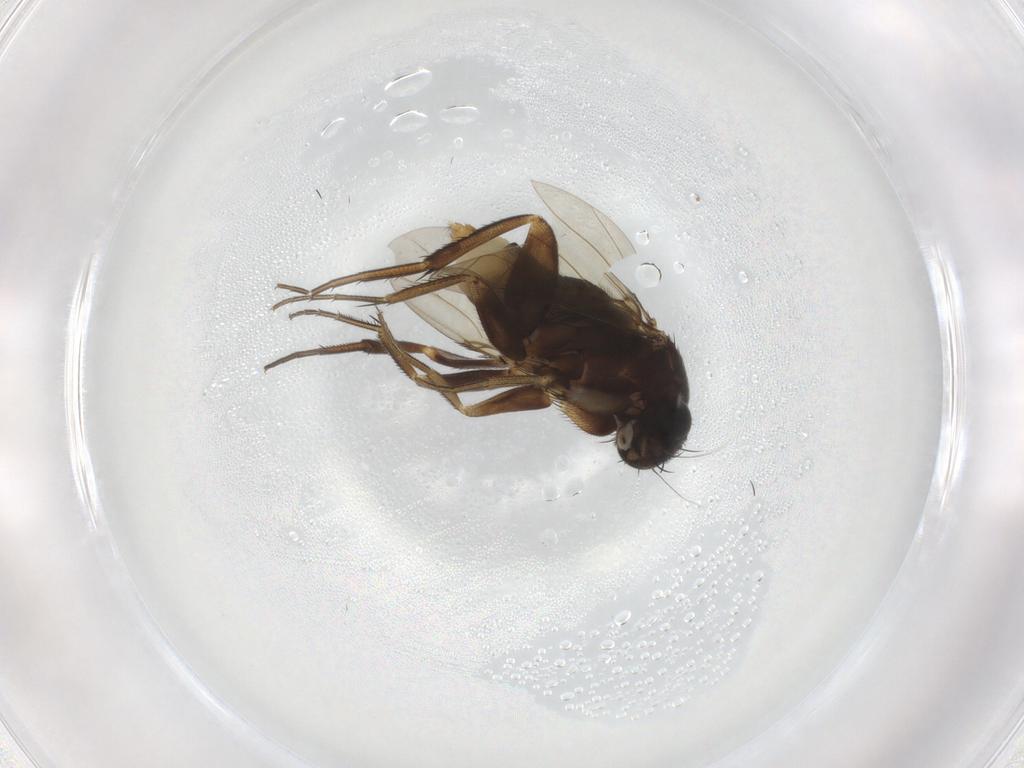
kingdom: Animalia
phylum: Arthropoda
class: Insecta
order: Diptera
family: Phoridae
